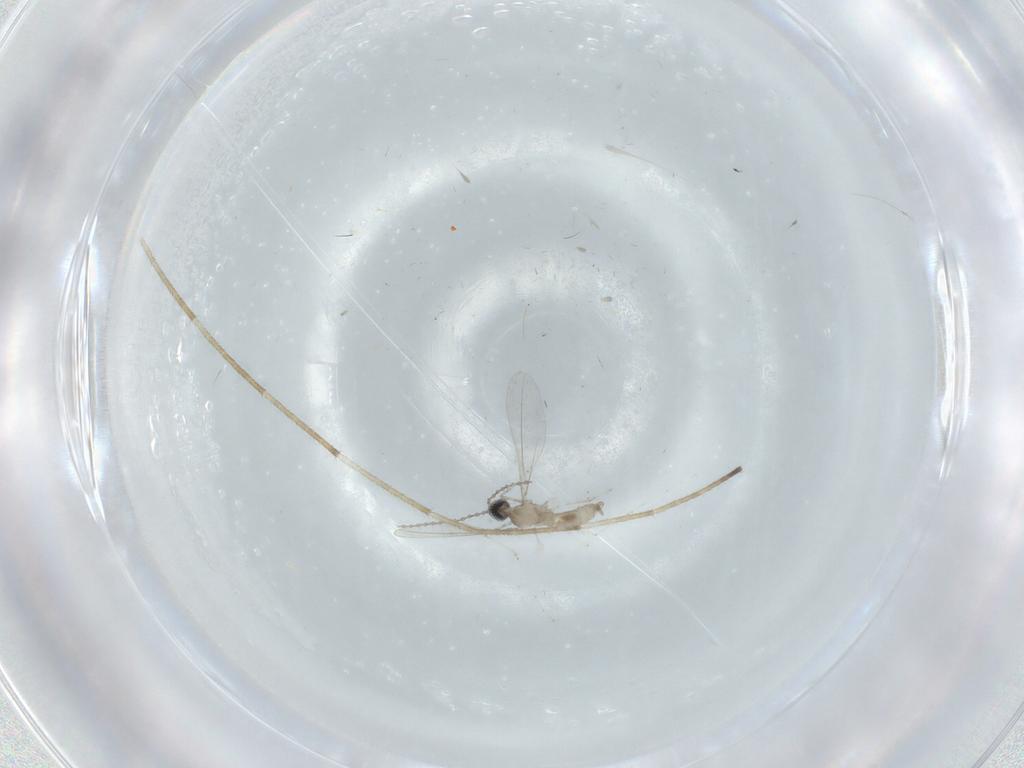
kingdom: Animalia
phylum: Arthropoda
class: Insecta
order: Diptera
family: Cecidomyiidae
